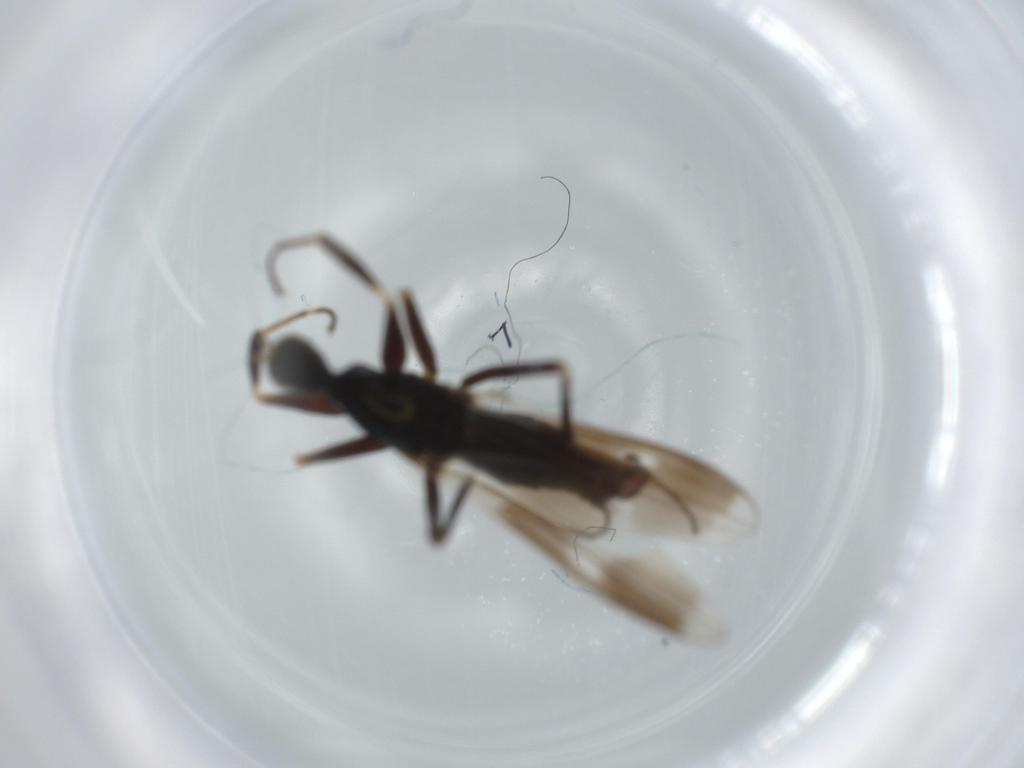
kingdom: Animalia
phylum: Arthropoda
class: Insecta
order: Diptera
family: Hybotidae
